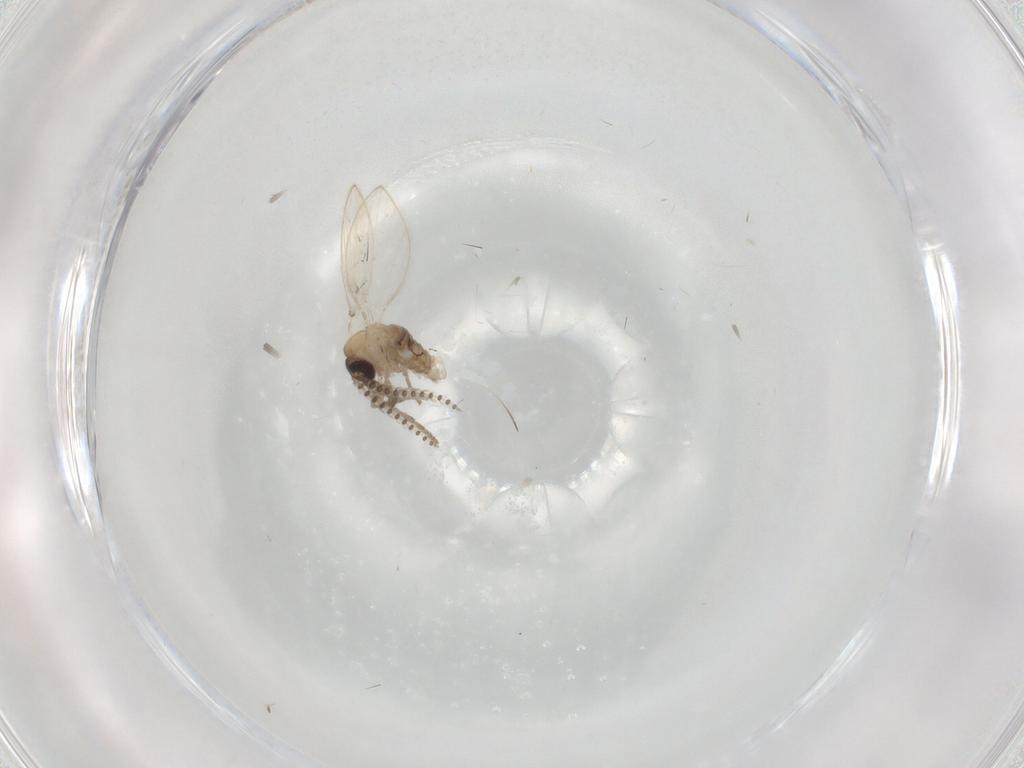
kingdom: Animalia
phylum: Arthropoda
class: Insecta
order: Diptera
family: Psychodidae
